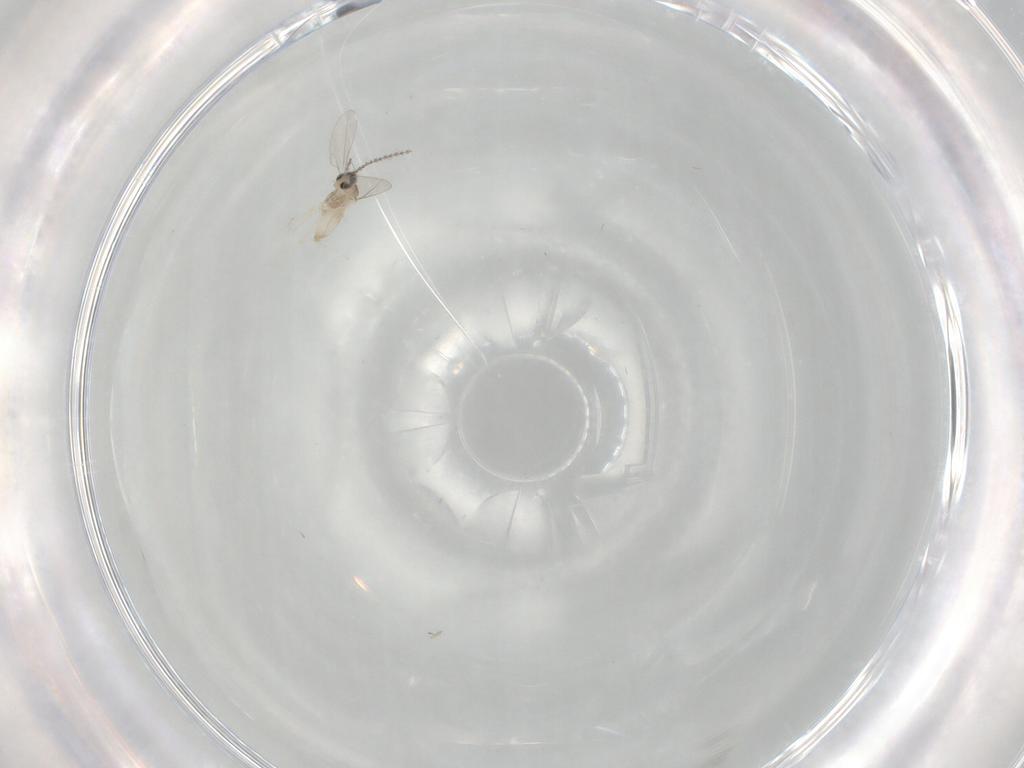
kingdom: Animalia
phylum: Arthropoda
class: Insecta
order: Diptera
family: Cecidomyiidae
